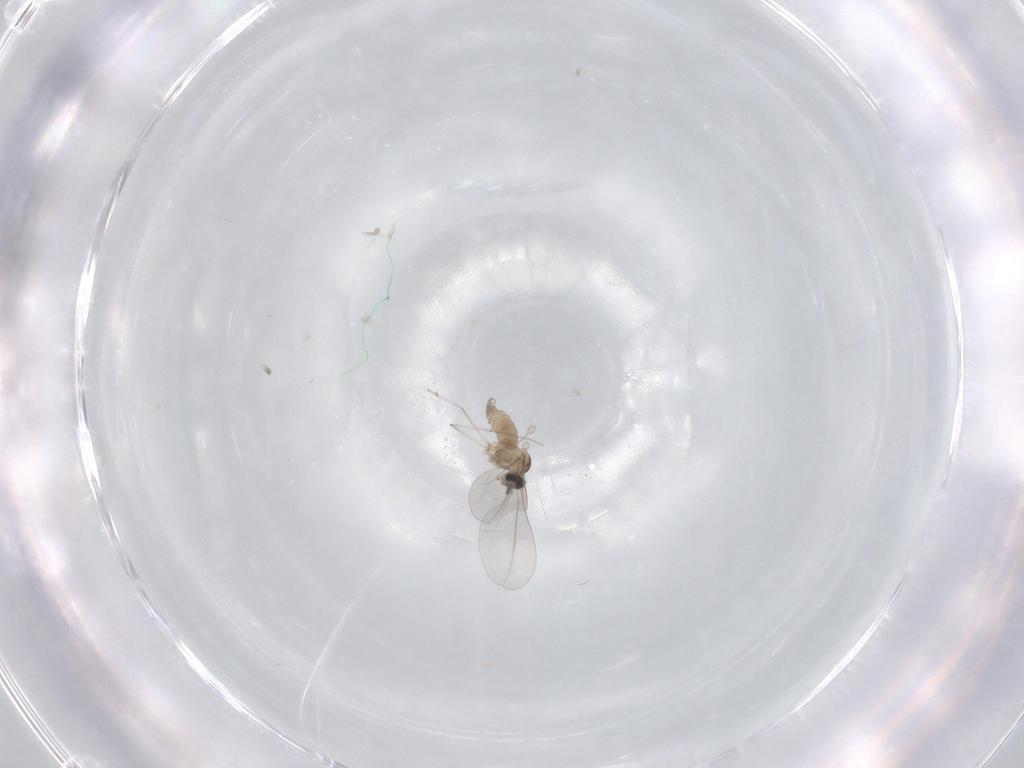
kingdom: Animalia
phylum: Arthropoda
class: Insecta
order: Diptera
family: Cecidomyiidae
